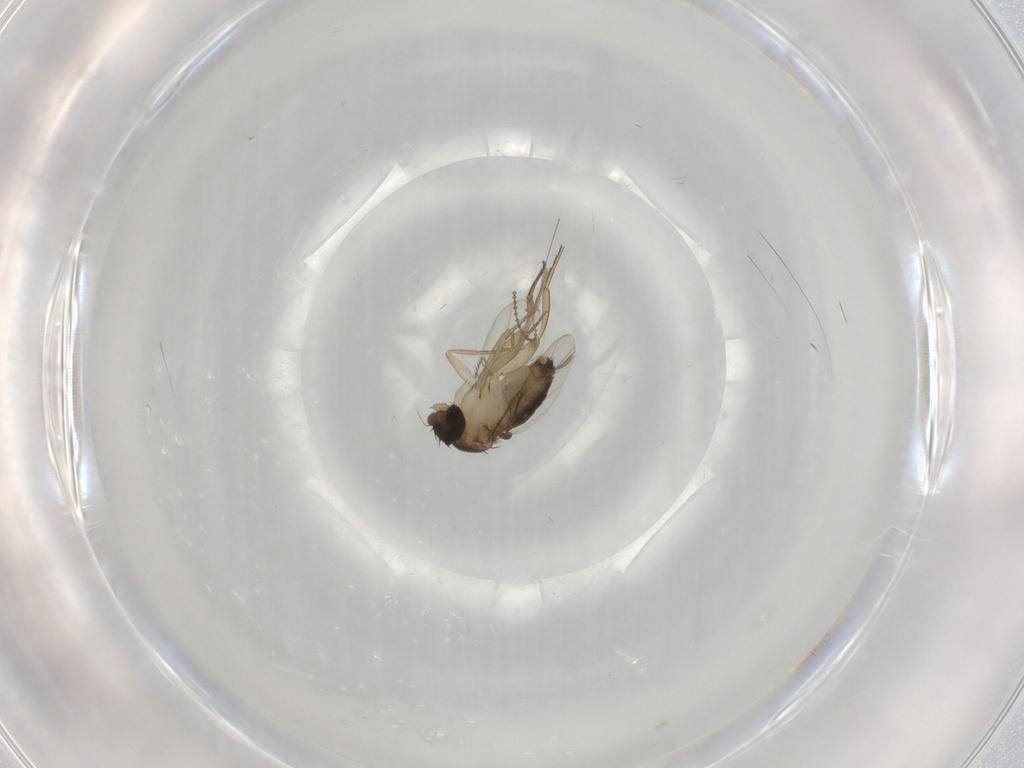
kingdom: Animalia
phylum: Arthropoda
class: Insecta
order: Diptera
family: Phoridae
